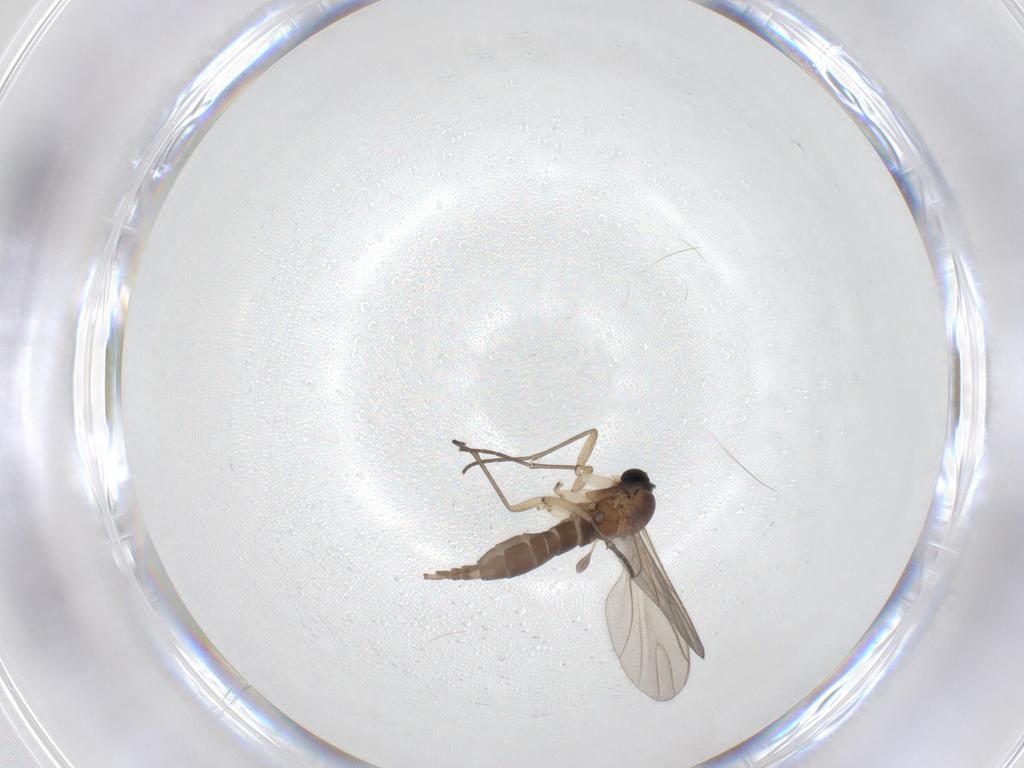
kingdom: Animalia
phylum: Arthropoda
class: Insecta
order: Diptera
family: Sciaridae
